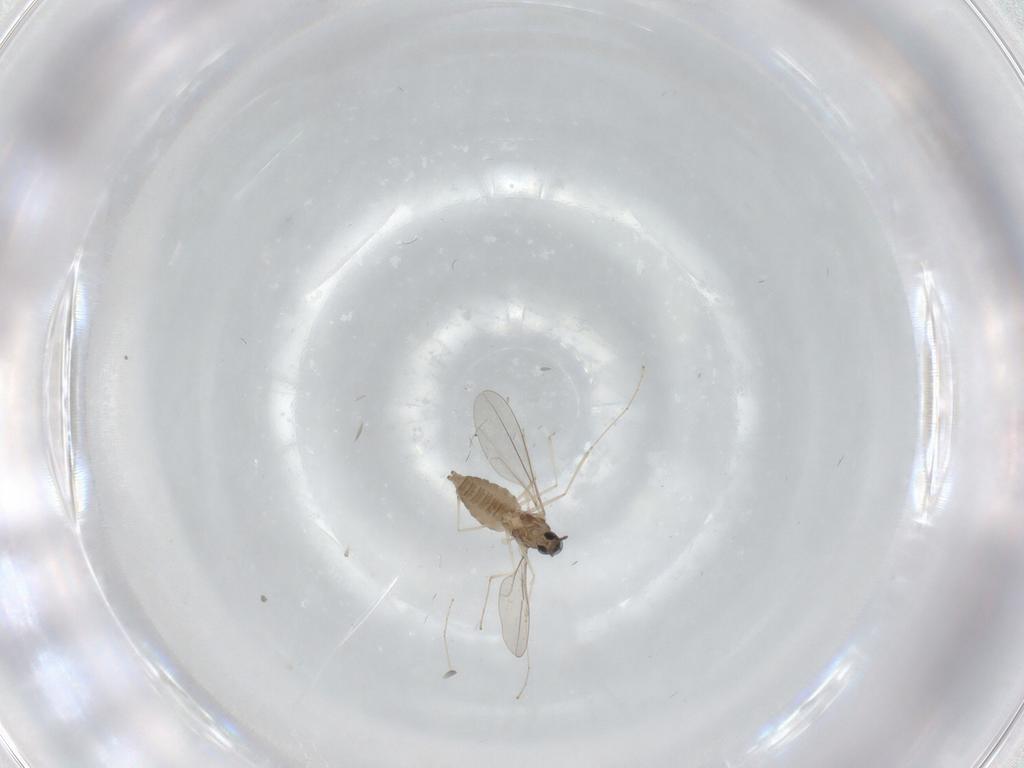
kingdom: Animalia
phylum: Arthropoda
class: Insecta
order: Diptera
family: Cecidomyiidae
